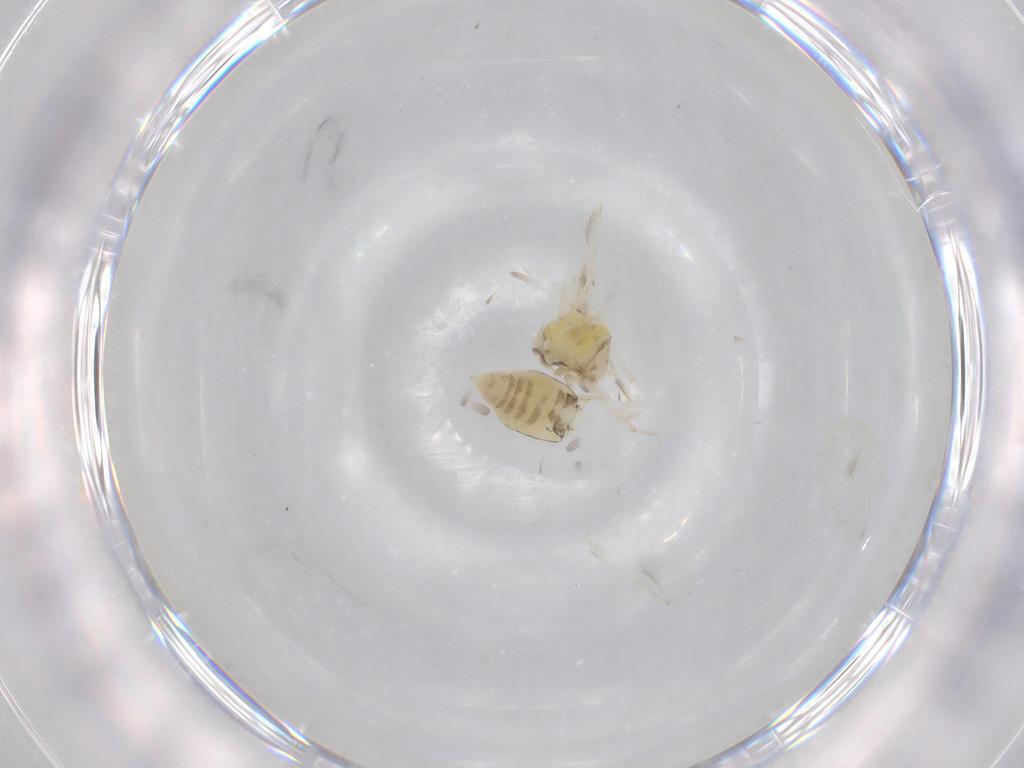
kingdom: Animalia
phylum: Arthropoda
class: Insecta
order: Hemiptera
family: Aleyrodidae
